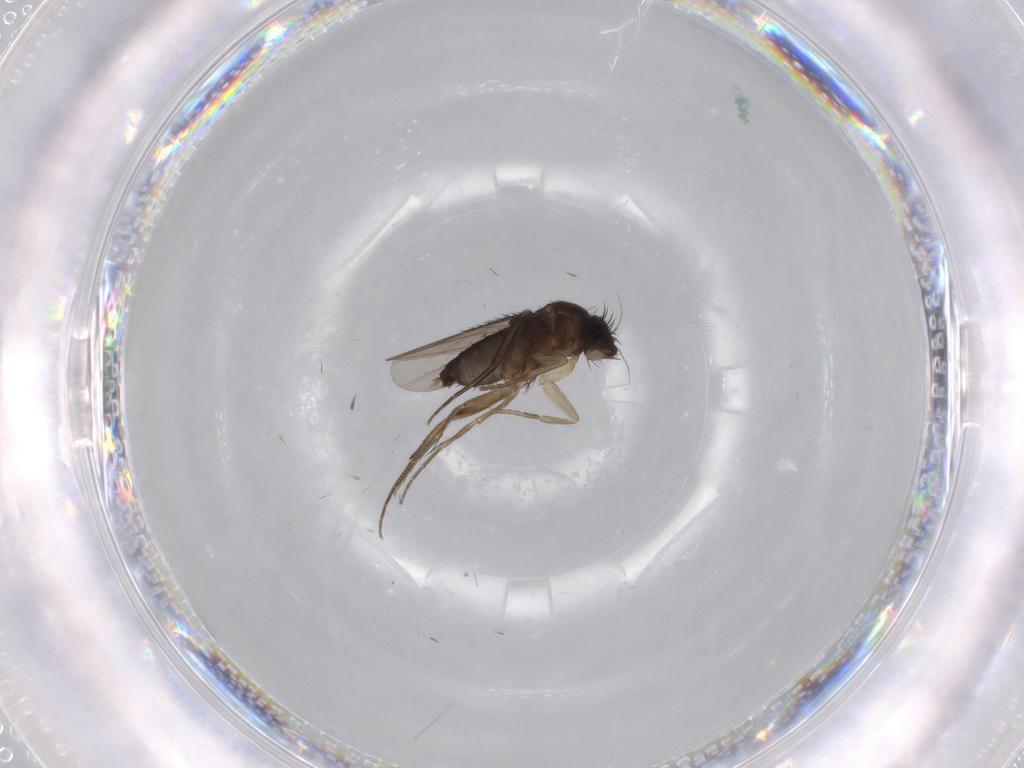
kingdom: Animalia
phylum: Arthropoda
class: Insecta
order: Diptera
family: Phoridae
